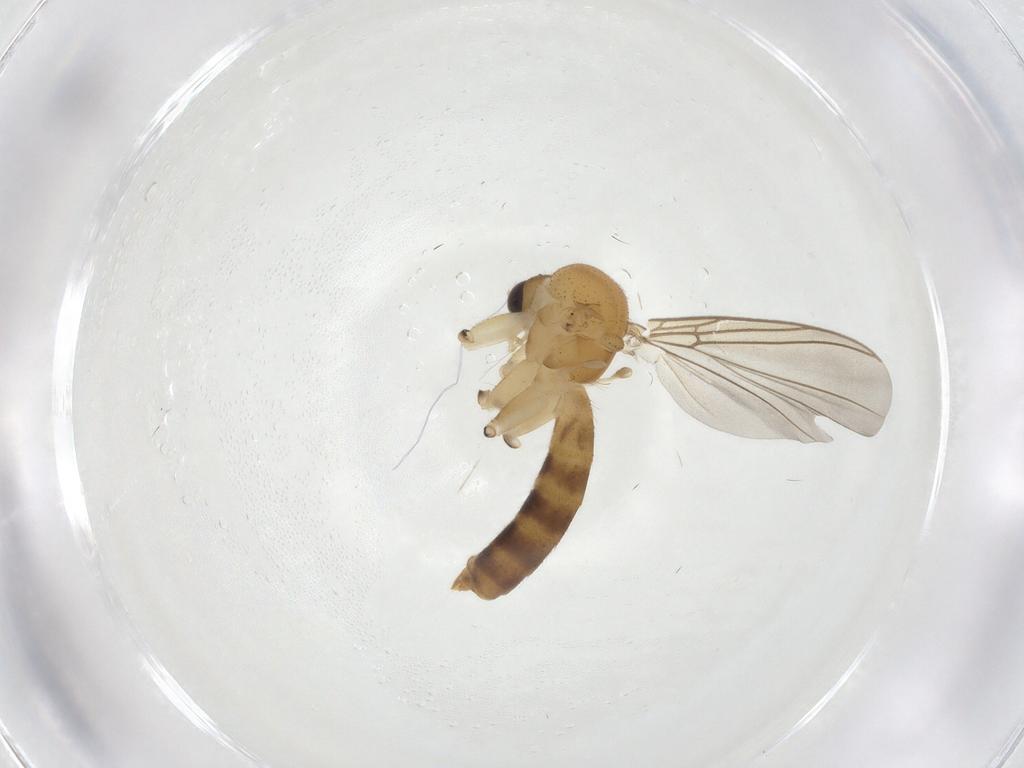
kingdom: Animalia
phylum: Arthropoda
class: Insecta
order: Diptera
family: Mycetophilidae
